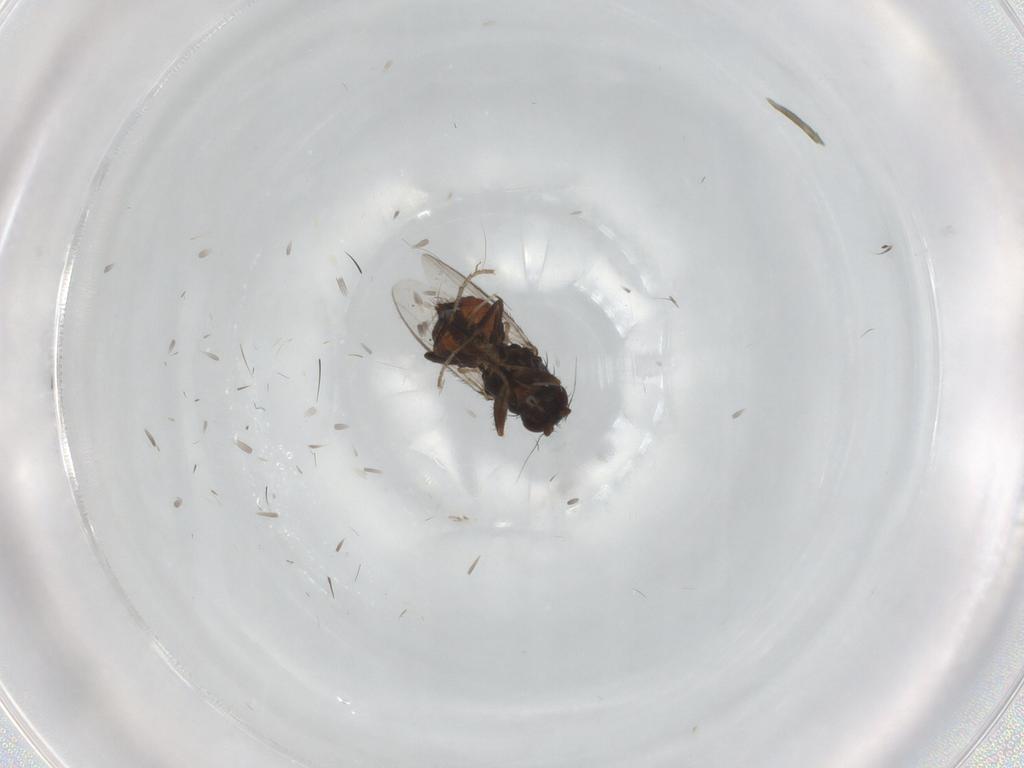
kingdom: Animalia
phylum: Arthropoda
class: Insecta
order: Diptera
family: Sphaeroceridae
